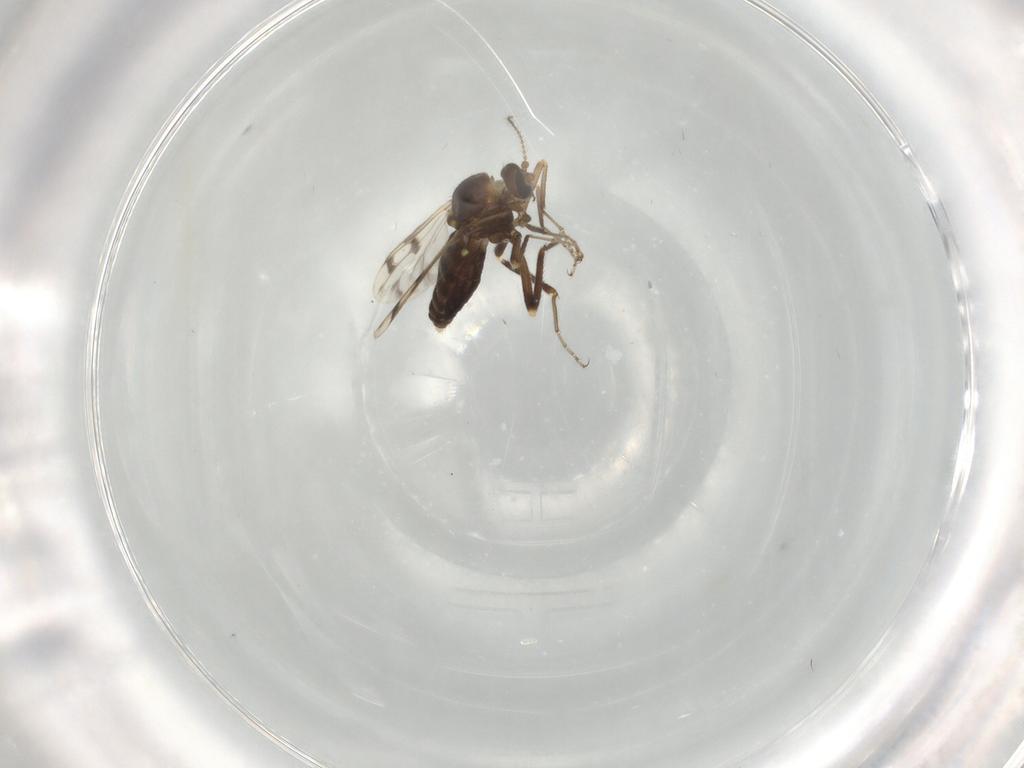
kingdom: Animalia
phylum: Arthropoda
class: Insecta
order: Diptera
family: Ceratopogonidae
